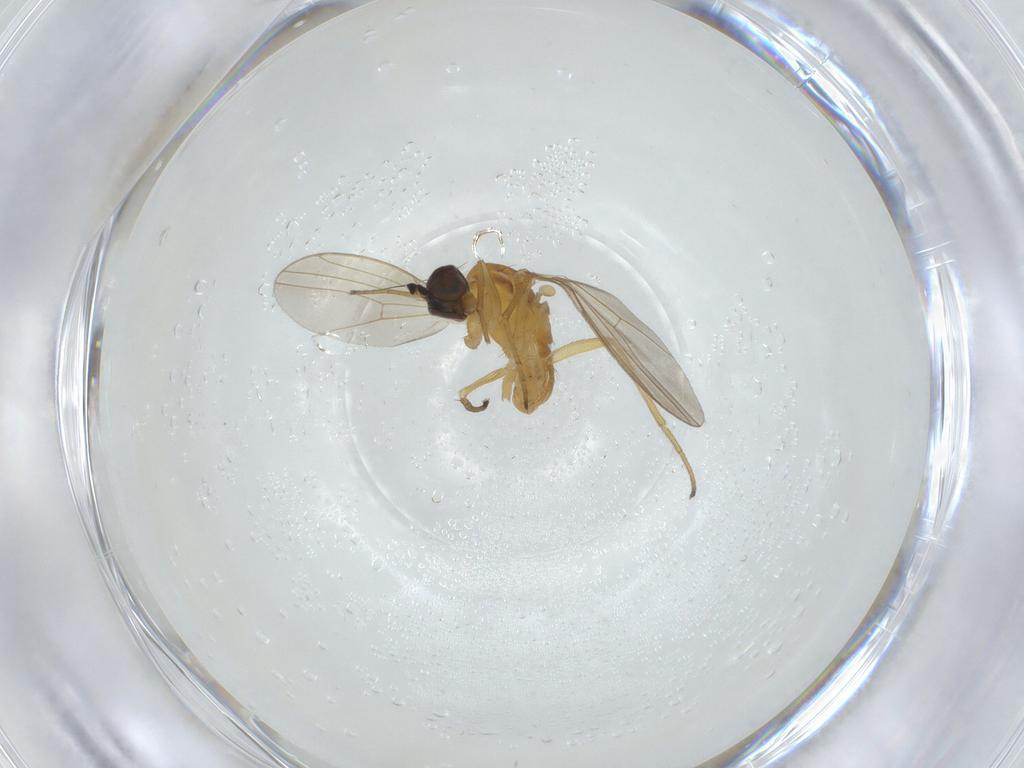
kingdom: Animalia
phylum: Arthropoda
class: Insecta
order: Diptera
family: Dolichopodidae
